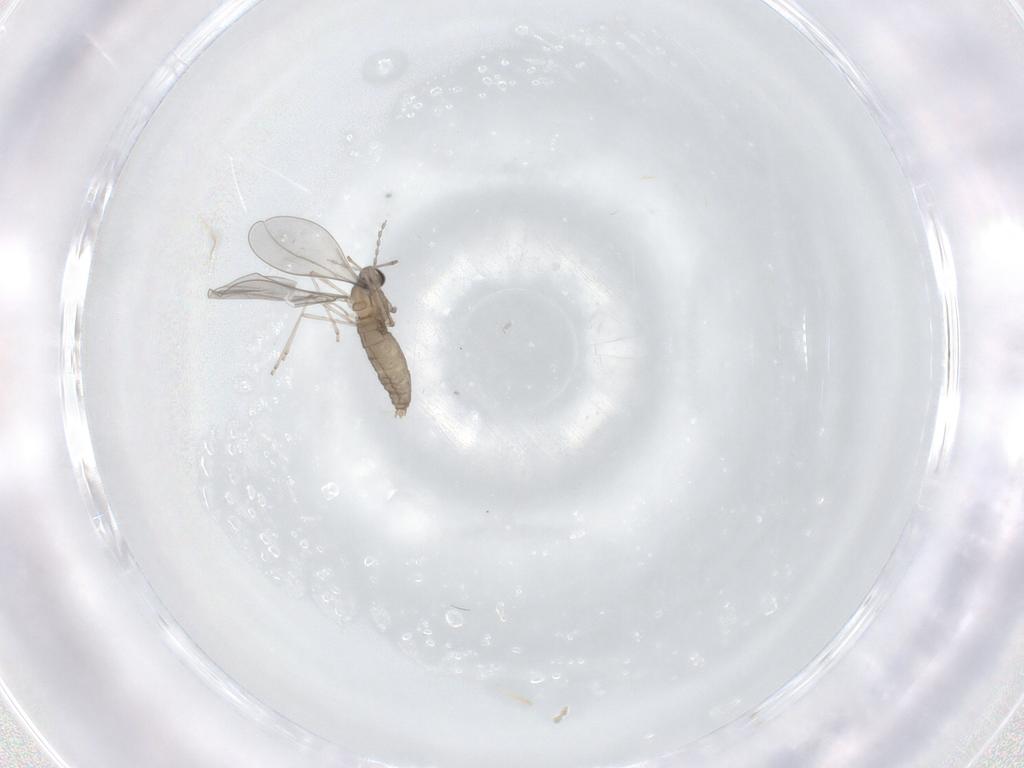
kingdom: Animalia
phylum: Arthropoda
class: Insecta
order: Diptera
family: Cecidomyiidae
